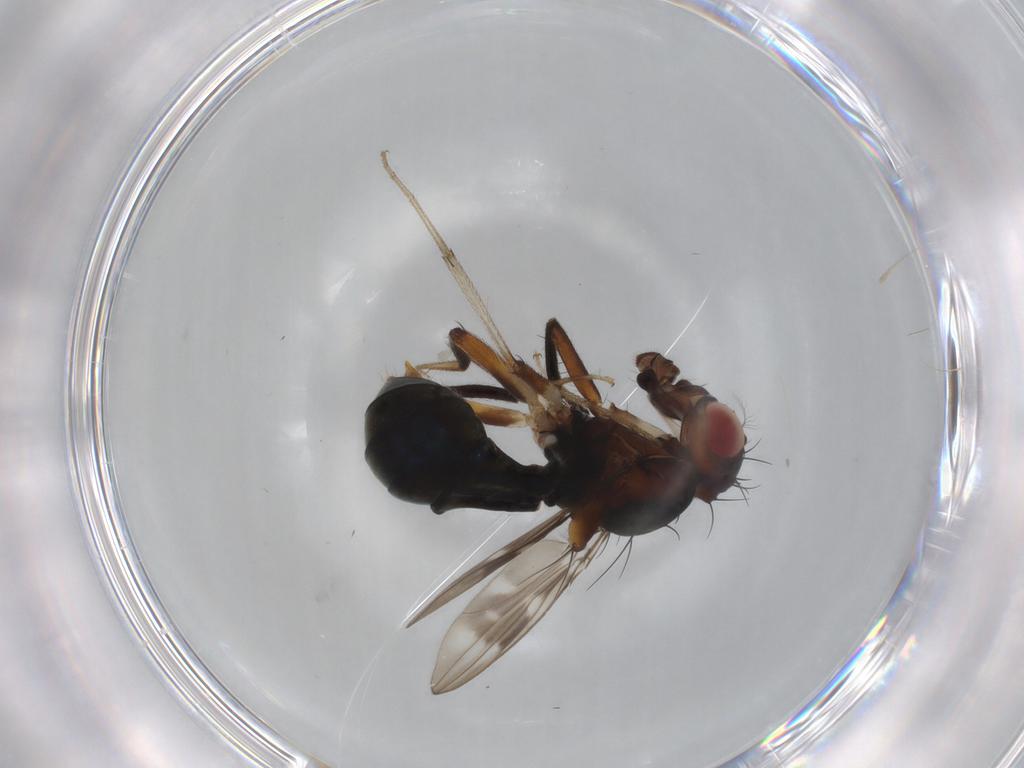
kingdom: Animalia
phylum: Arthropoda
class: Insecta
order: Diptera
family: Drosophilidae
